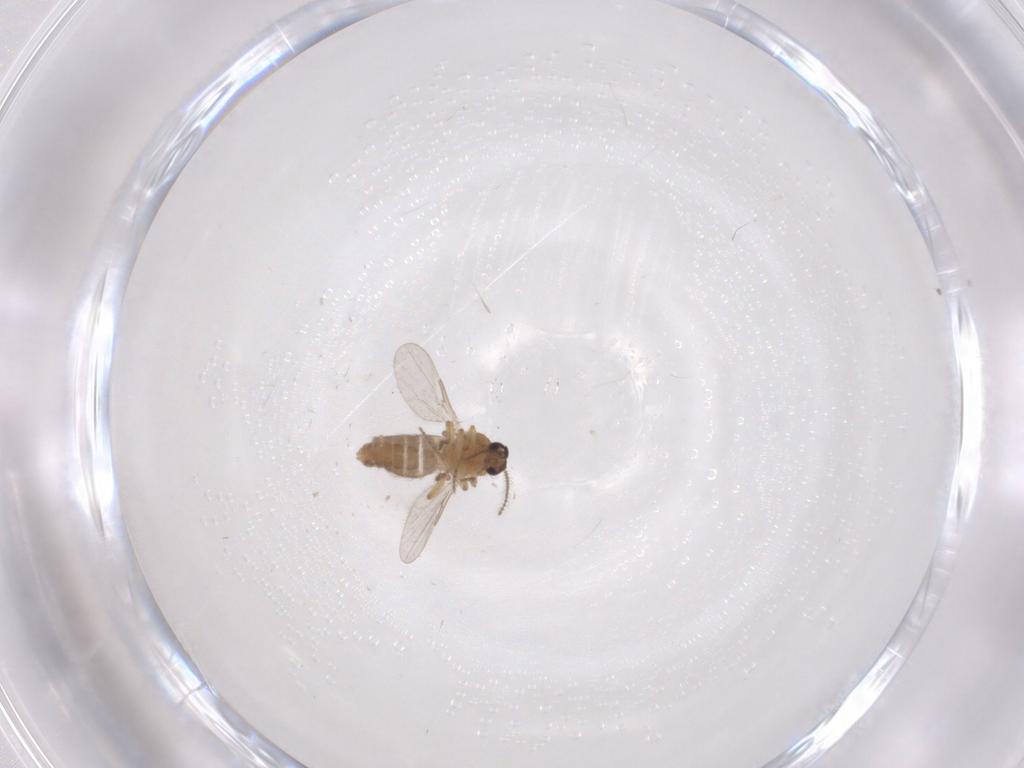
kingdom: Animalia
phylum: Arthropoda
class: Insecta
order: Diptera
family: Ceratopogonidae
